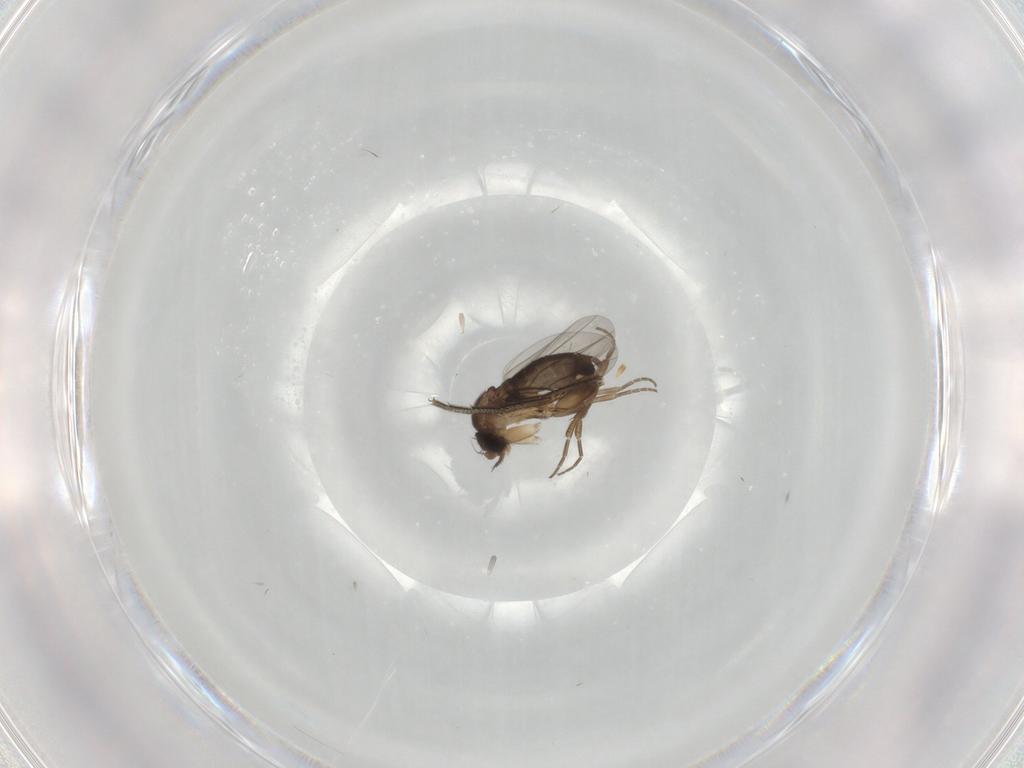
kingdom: Animalia
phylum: Arthropoda
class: Insecta
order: Diptera
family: Phoridae
